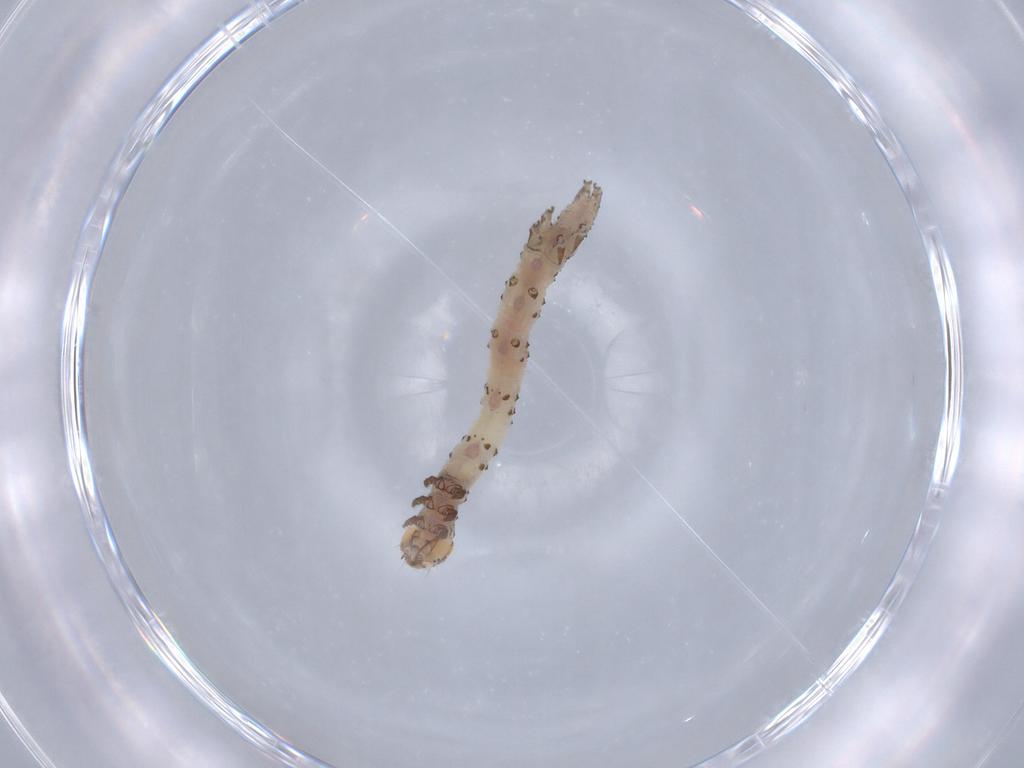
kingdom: Animalia
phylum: Arthropoda
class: Insecta
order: Lepidoptera
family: Erebidae
